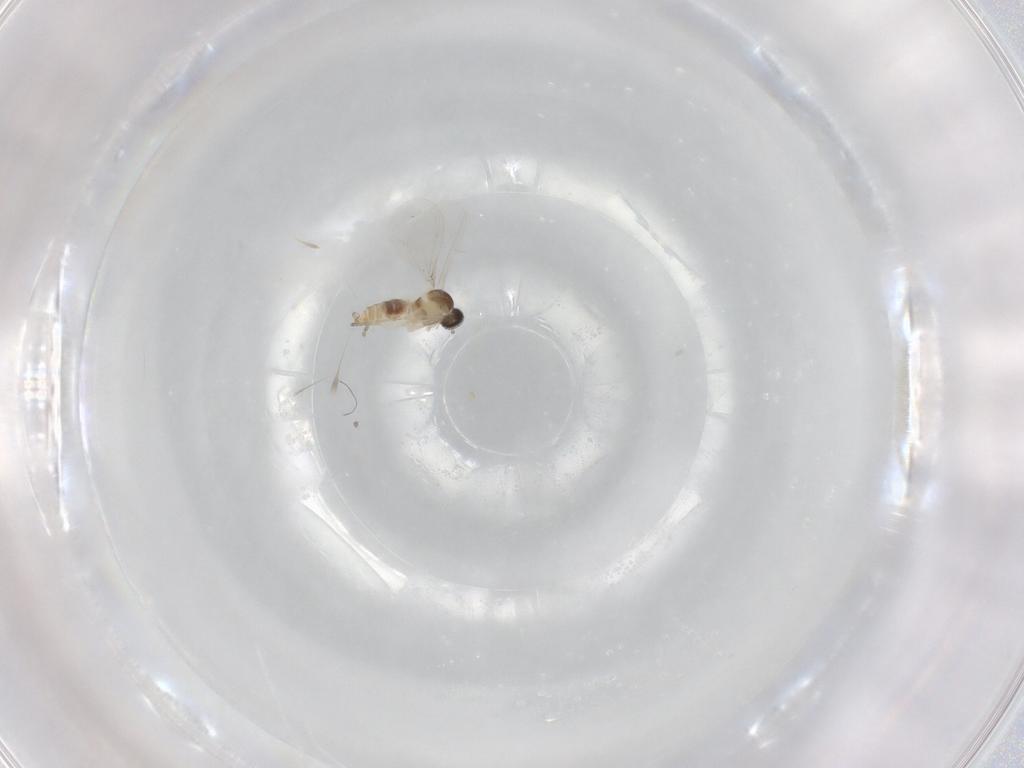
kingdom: Animalia
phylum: Arthropoda
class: Insecta
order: Diptera
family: Cecidomyiidae
